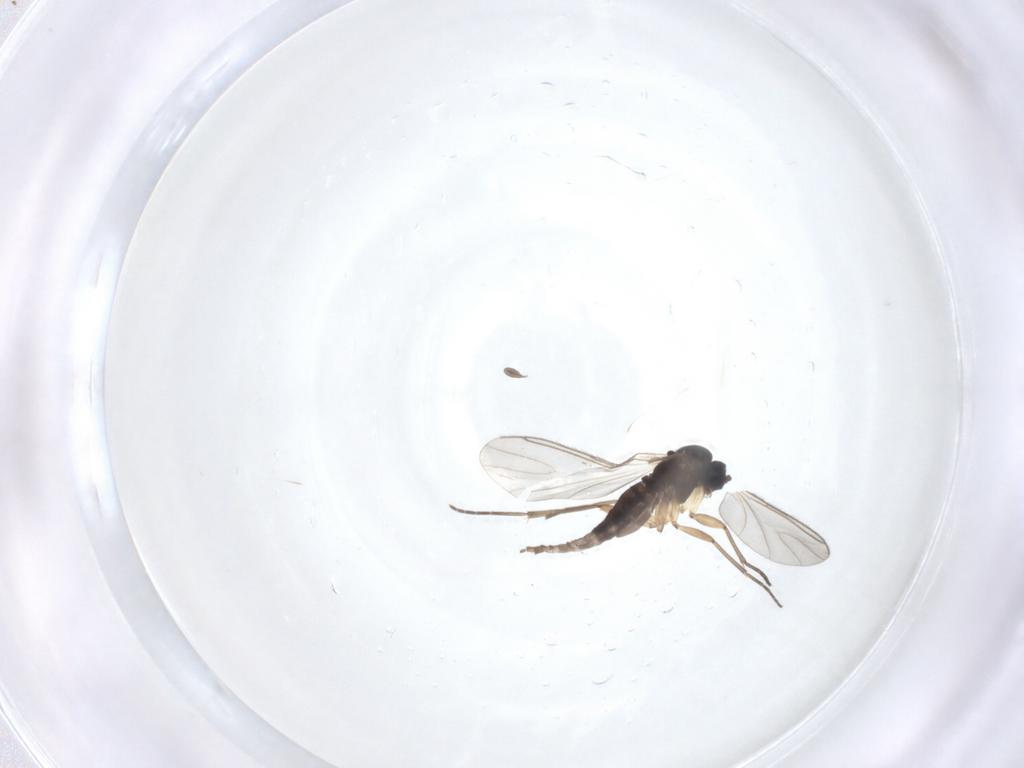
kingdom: Animalia
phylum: Arthropoda
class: Insecta
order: Diptera
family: Sciaridae
